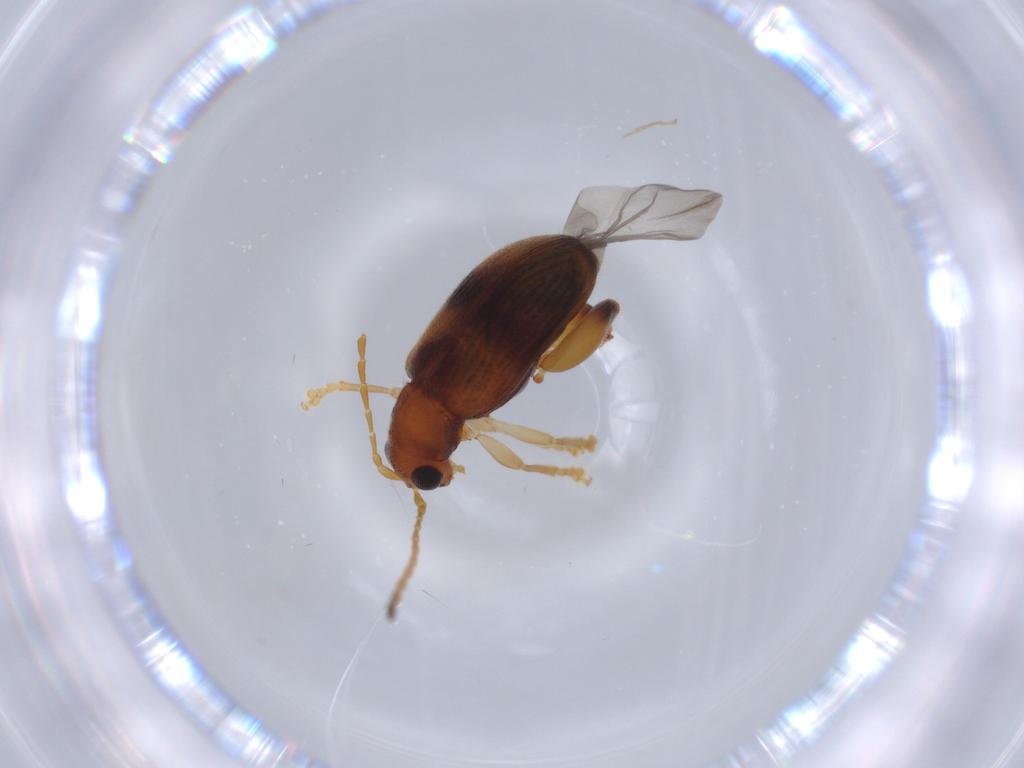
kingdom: Animalia
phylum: Arthropoda
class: Insecta
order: Coleoptera
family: Chrysomelidae
